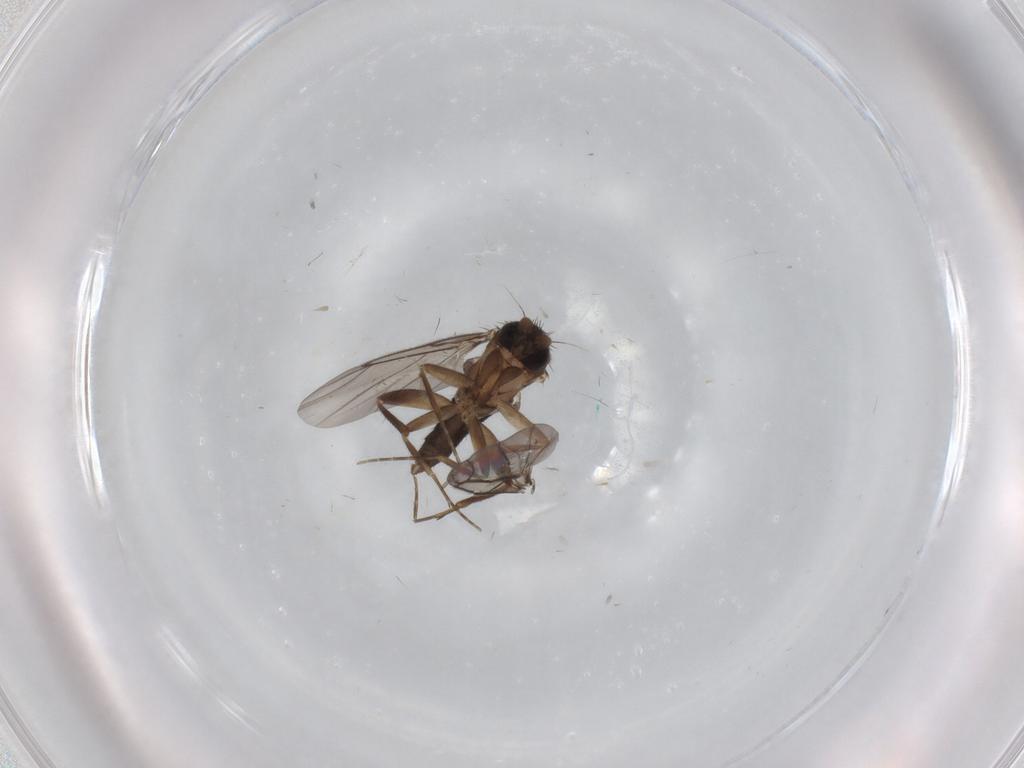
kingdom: Animalia
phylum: Arthropoda
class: Insecta
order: Diptera
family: Phoridae
